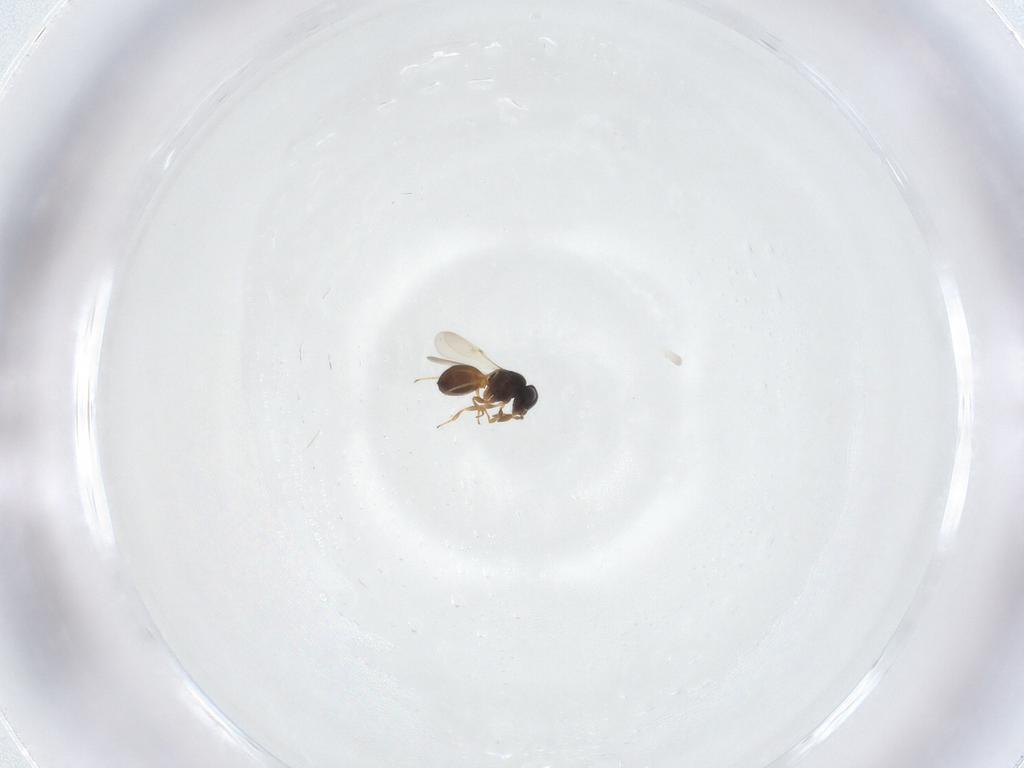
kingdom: Animalia
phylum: Arthropoda
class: Insecta
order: Hymenoptera
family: Scelionidae
